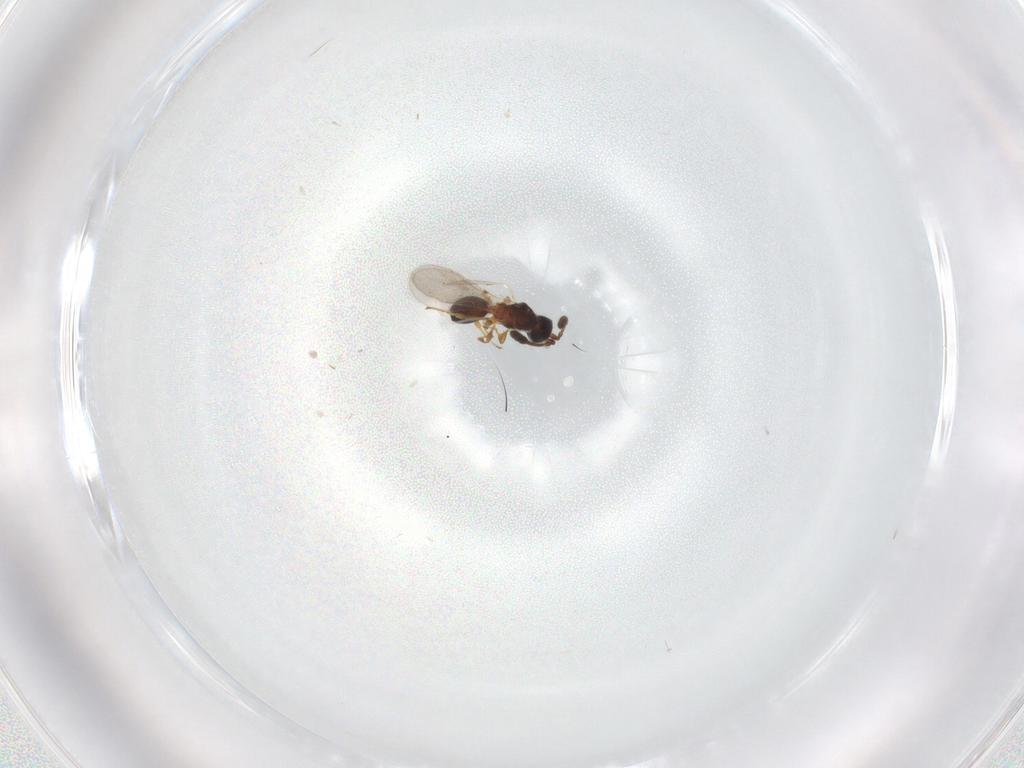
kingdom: Animalia
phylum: Arthropoda
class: Insecta
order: Hymenoptera
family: Diapriidae
